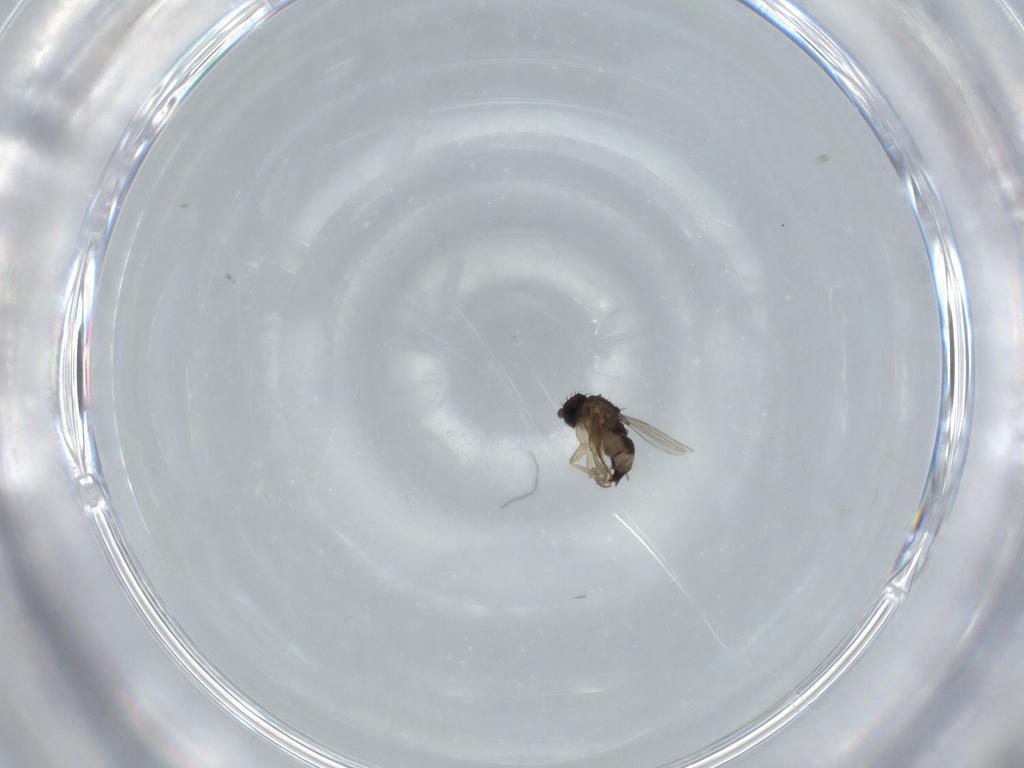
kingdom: Animalia
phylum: Arthropoda
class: Insecta
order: Diptera
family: Phoridae
